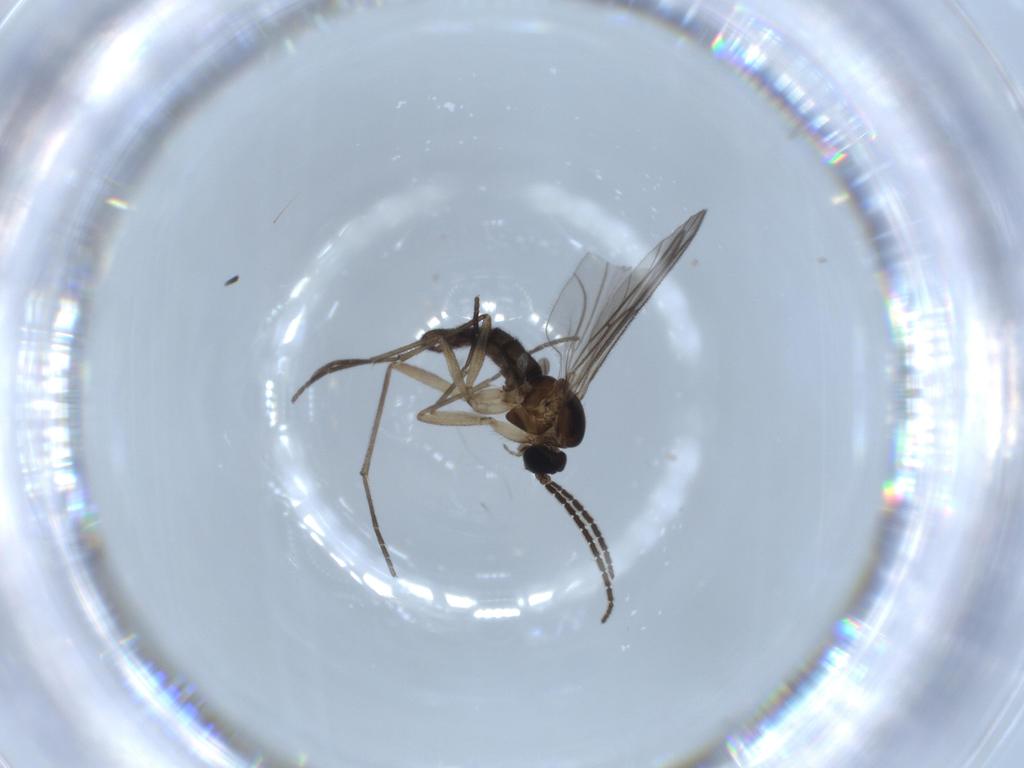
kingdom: Animalia
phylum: Arthropoda
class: Insecta
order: Diptera
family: Sciaridae
